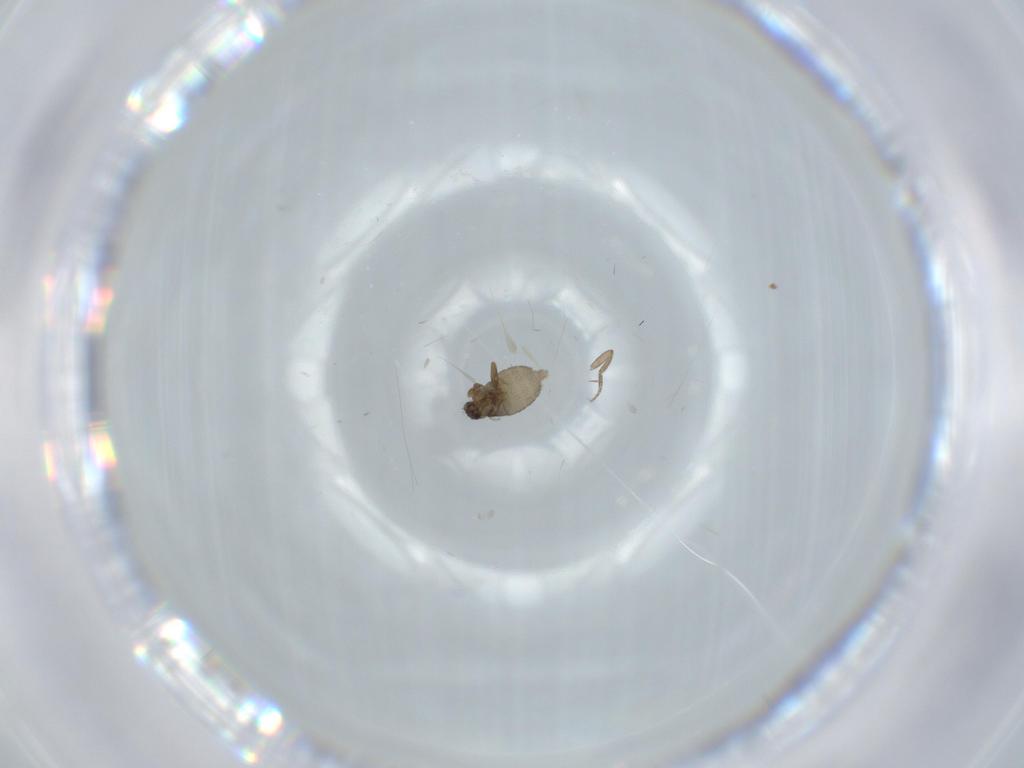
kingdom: Animalia
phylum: Arthropoda
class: Insecta
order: Diptera
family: Phoridae
